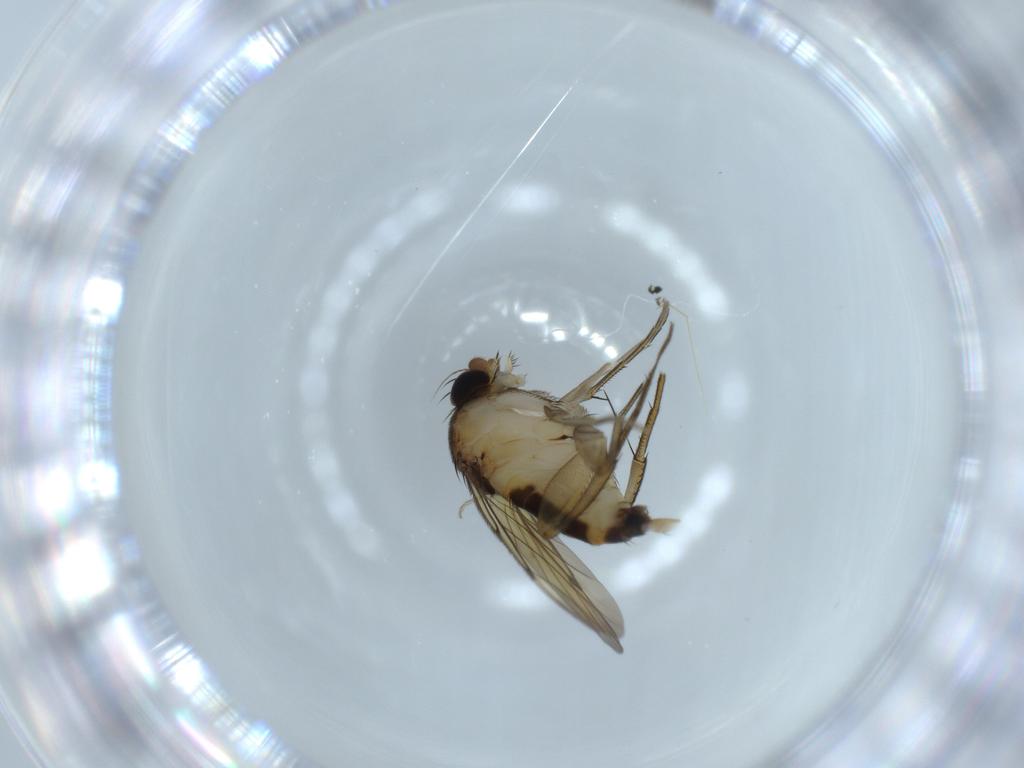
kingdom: Animalia
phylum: Arthropoda
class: Insecta
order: Diptera
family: Phoridae
